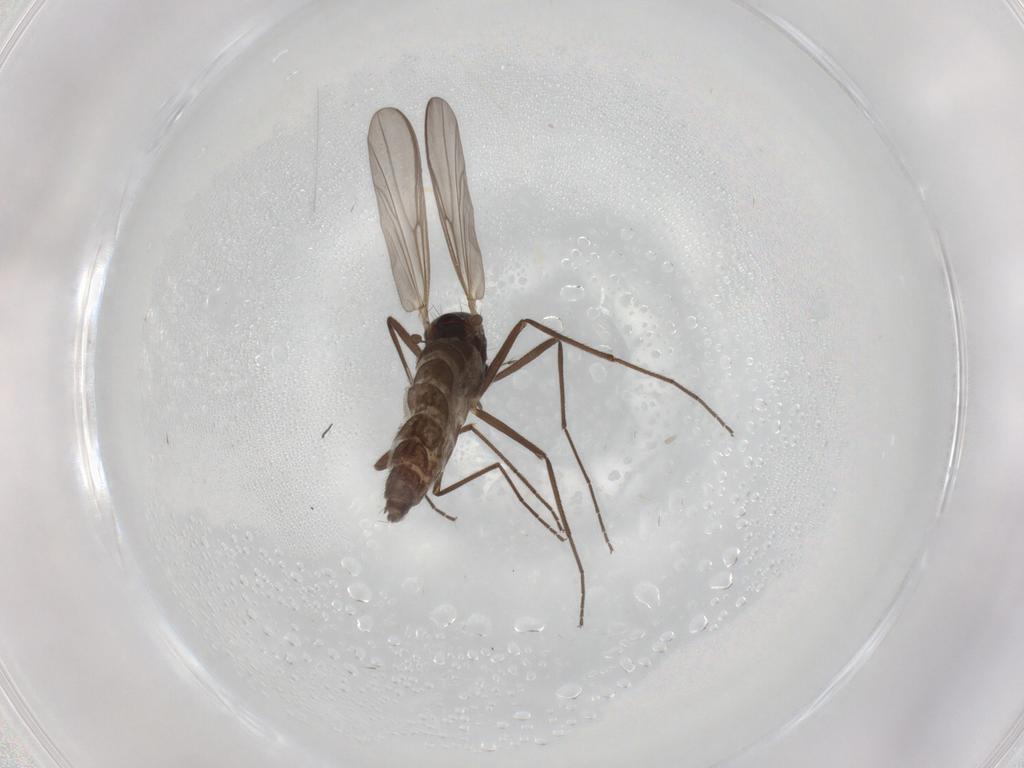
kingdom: Animalia
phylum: Arthropoda
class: Insecta
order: Diptera
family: Chironomidae
